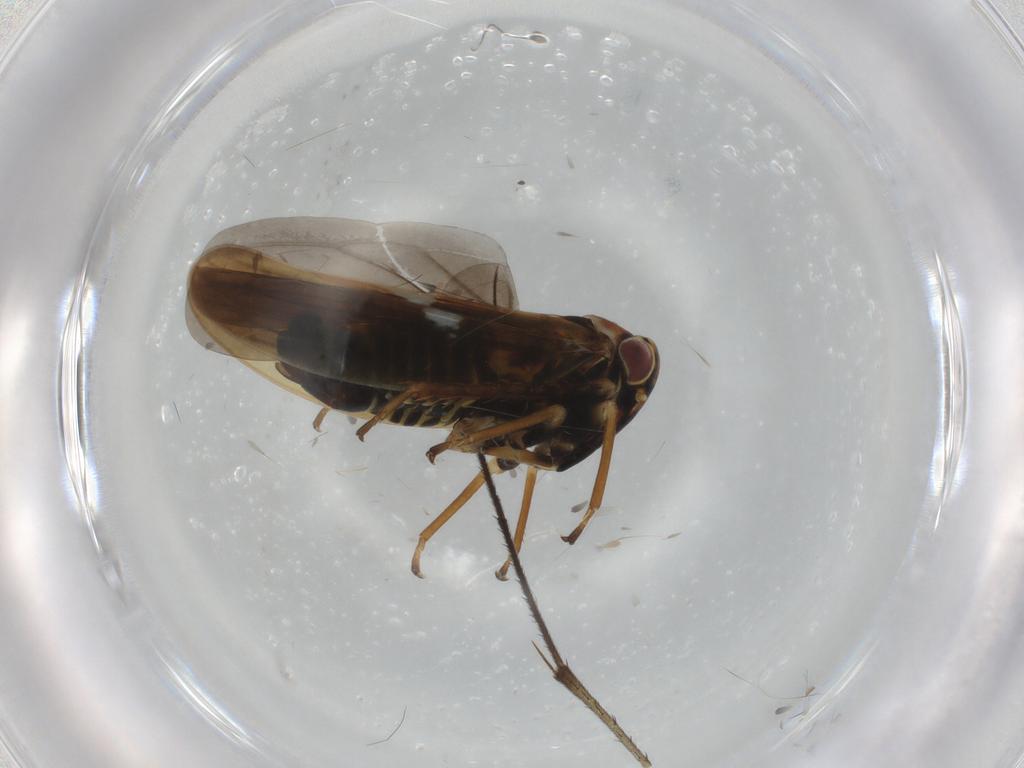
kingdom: Animalia
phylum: Arthropoda
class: Insecta
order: Hemiptera
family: Cicadellidae
